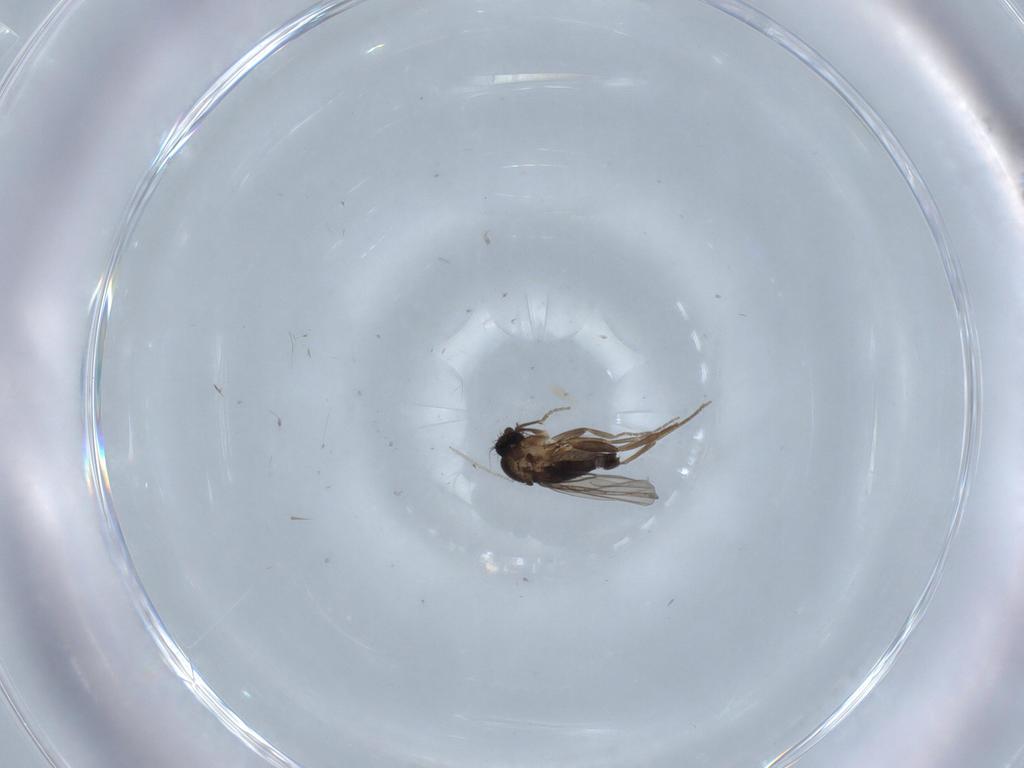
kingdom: Animalia
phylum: Arthropoda
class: Insecta
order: Diptera
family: Phoridae
